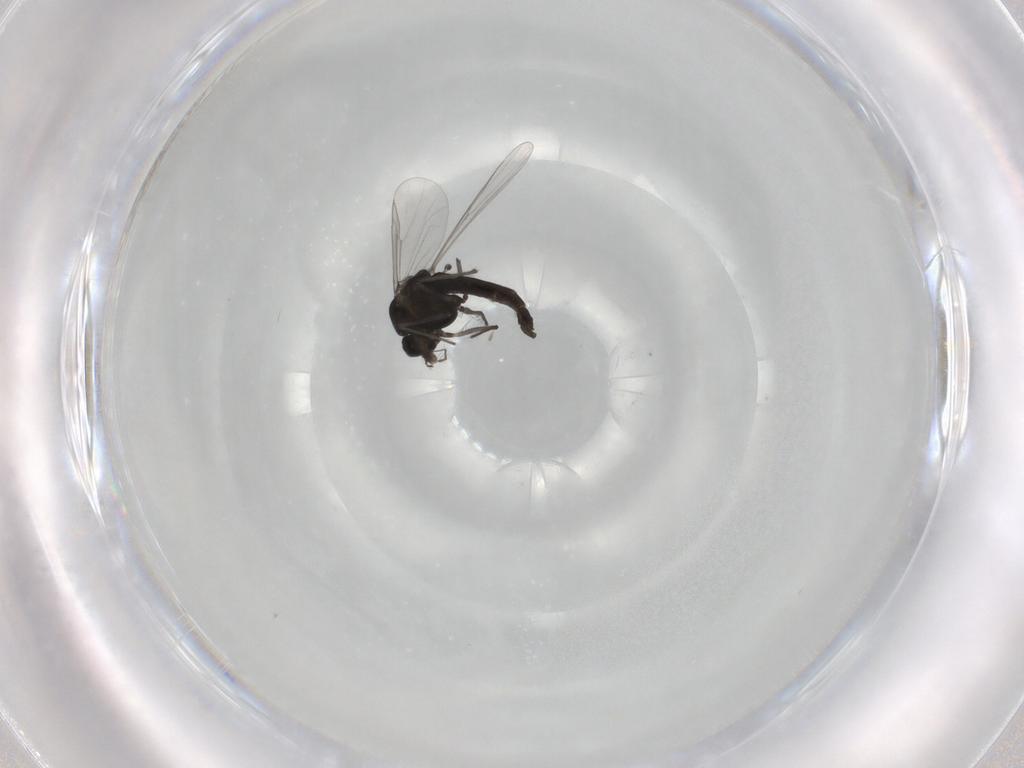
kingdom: Animalia
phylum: Arthropoda
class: Insecta
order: Diptera
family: Chironomidae
